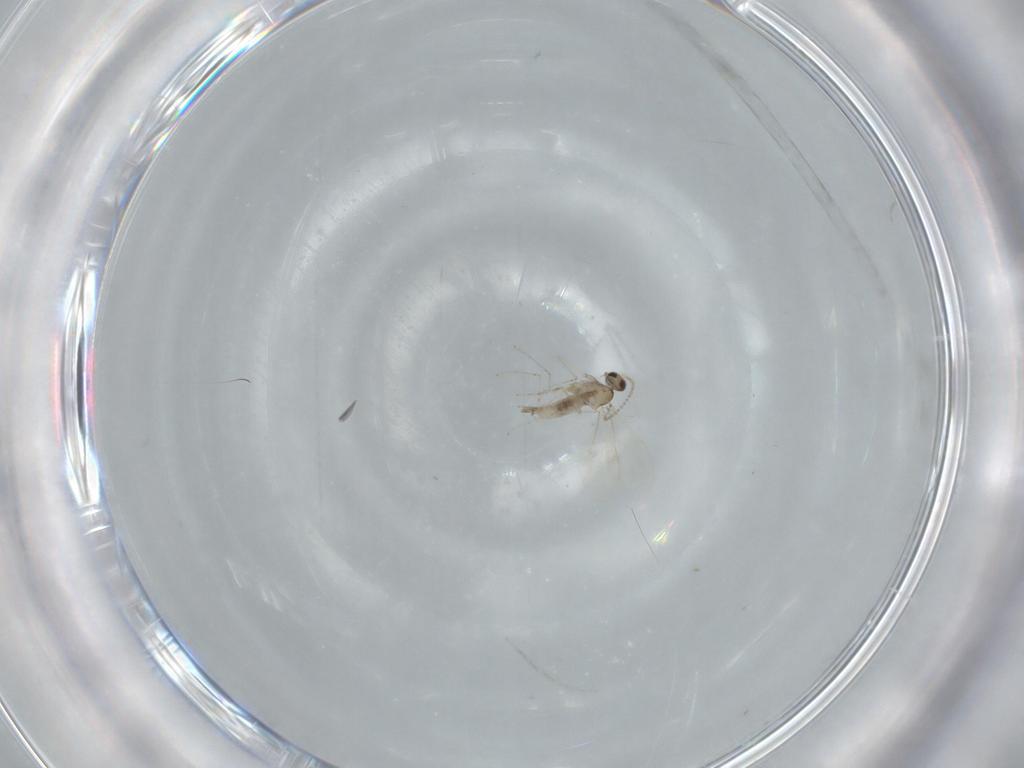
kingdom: Animalia
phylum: Arthropoda
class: Insecta
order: Diptera
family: Cecidomyiidae
